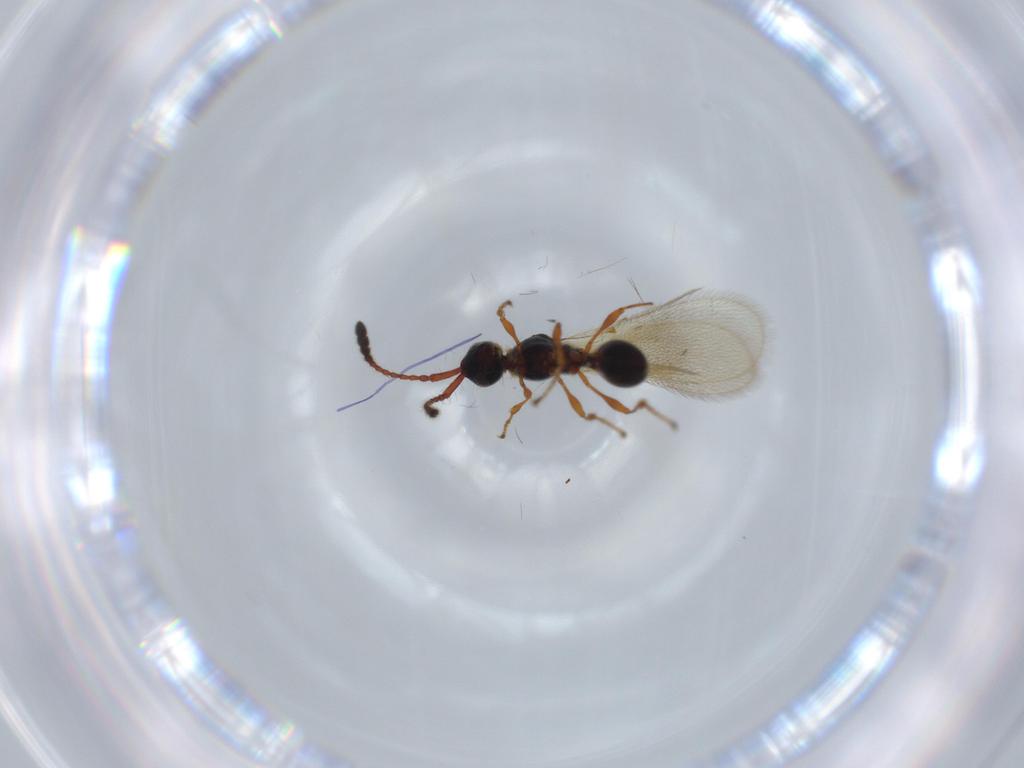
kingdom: Animalia
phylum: Arthropoda
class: Insecta
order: Hymenoptera
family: Diapriidae
